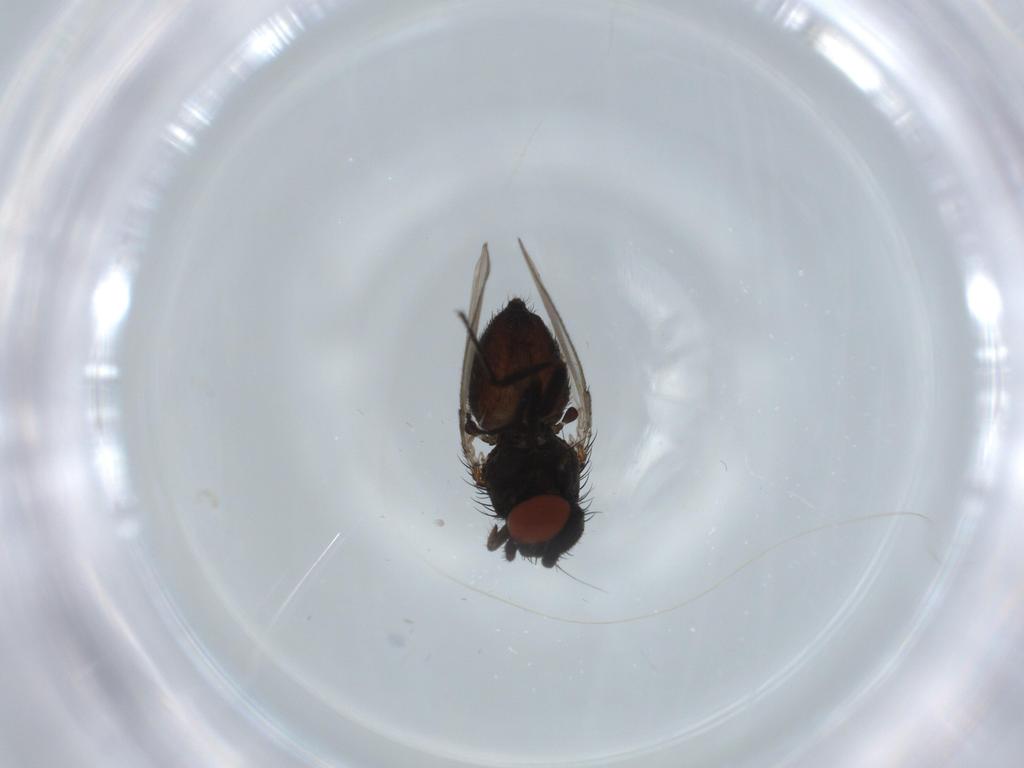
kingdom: Animalia
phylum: Arthropoda
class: Insecta
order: Diptera
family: Milichiidae
